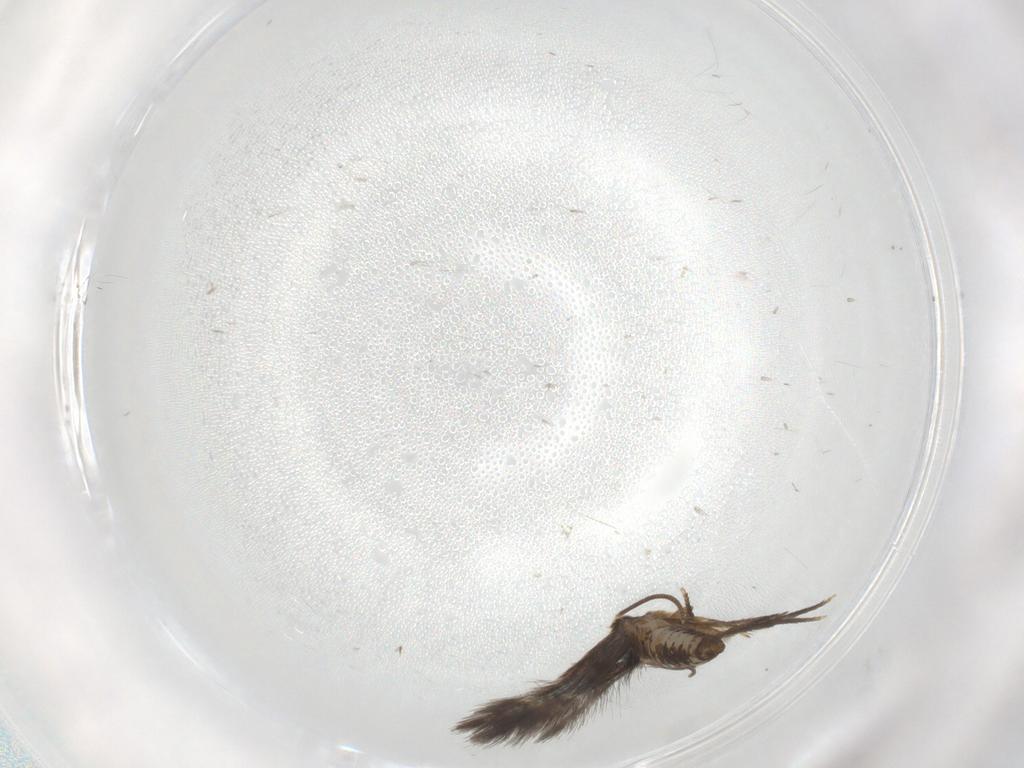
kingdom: Animalia
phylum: Arthropoda
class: Insecta
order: Lepidoptera
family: Nepticulidae
